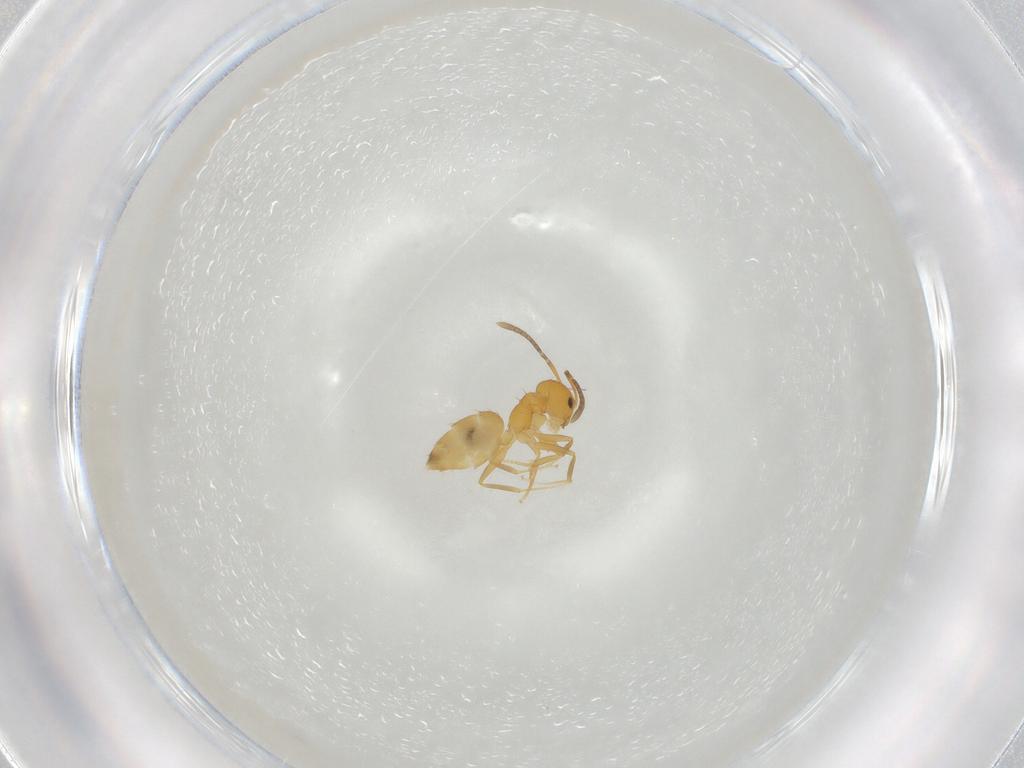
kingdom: Animalia
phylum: Arthropoda
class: Insecta
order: Hymenoptera
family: Formicidae
